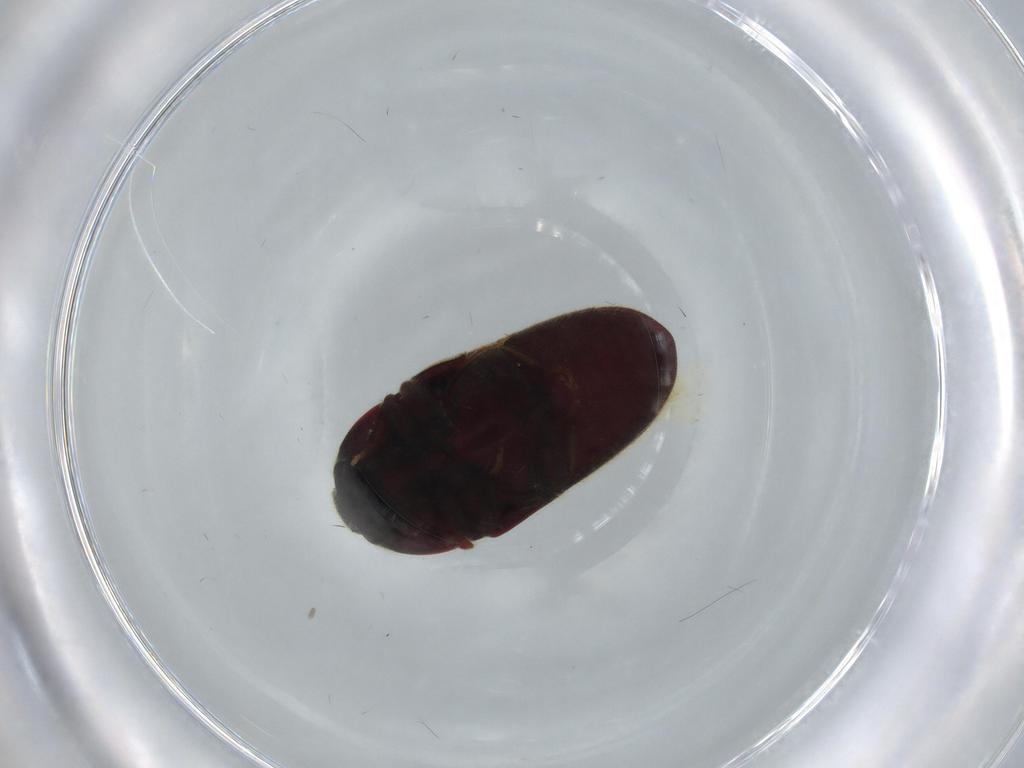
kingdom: Animalia
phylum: Arthropoda
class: Insecta
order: Coleoptera
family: Throscidae
